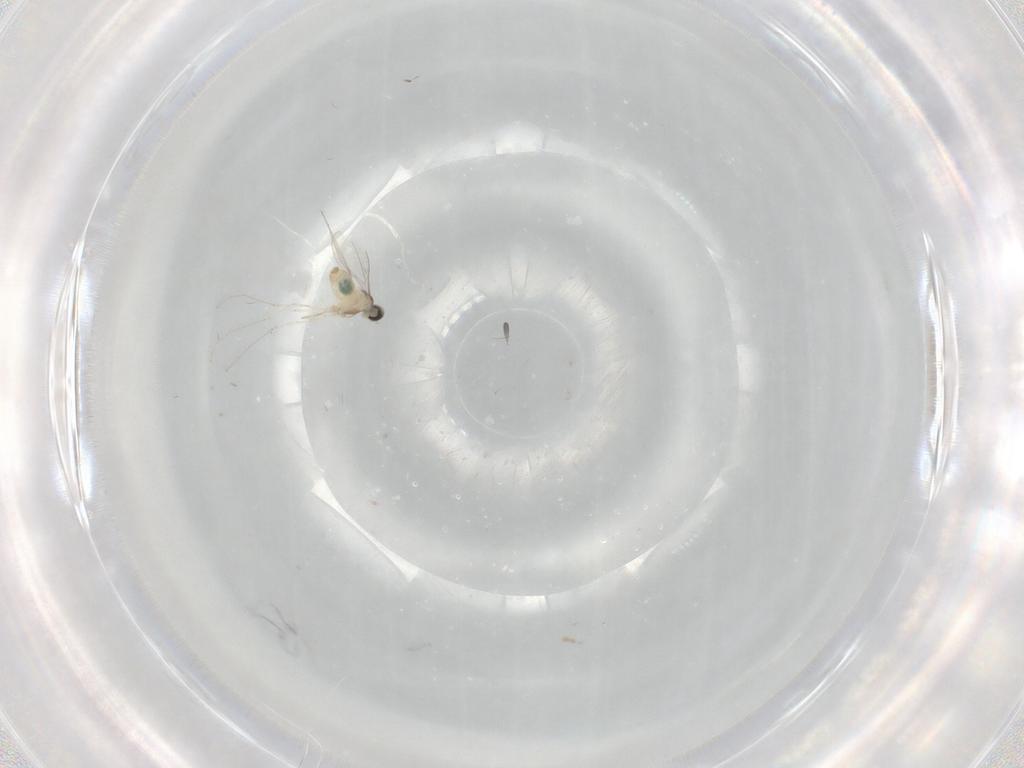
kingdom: Animalia
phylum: Arthropoda
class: Insecta
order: Diptera
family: Cecidomyiidae
